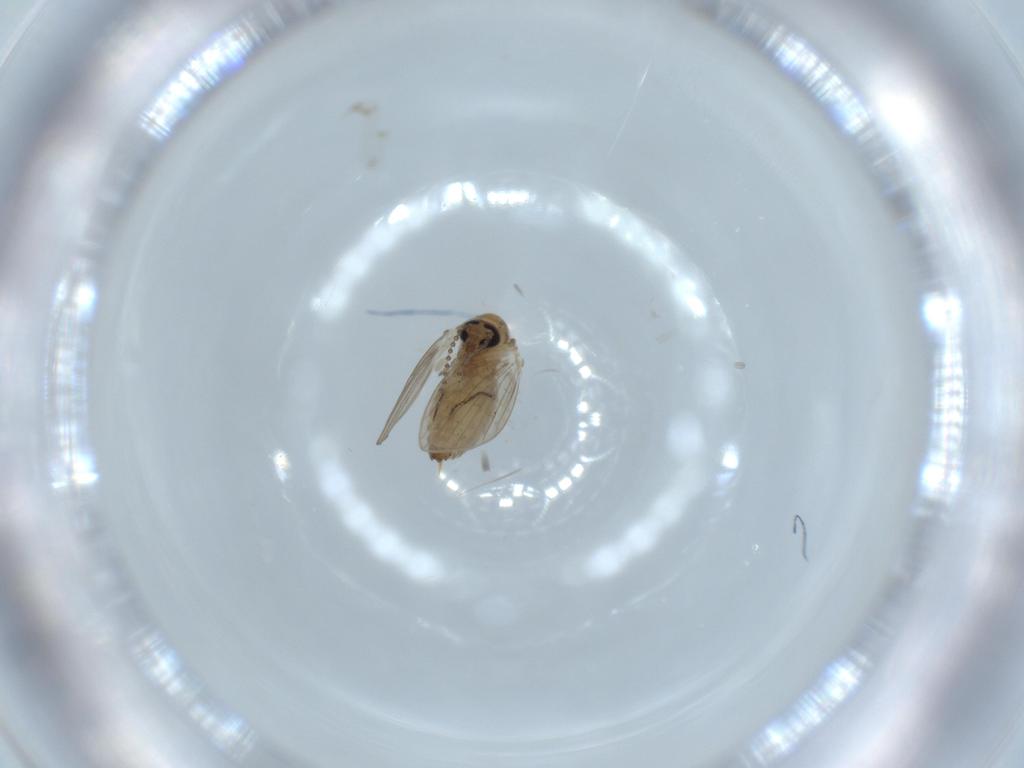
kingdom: Animalia
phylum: Arthropoda
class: Insecta
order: Diptera
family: Psychodidae
